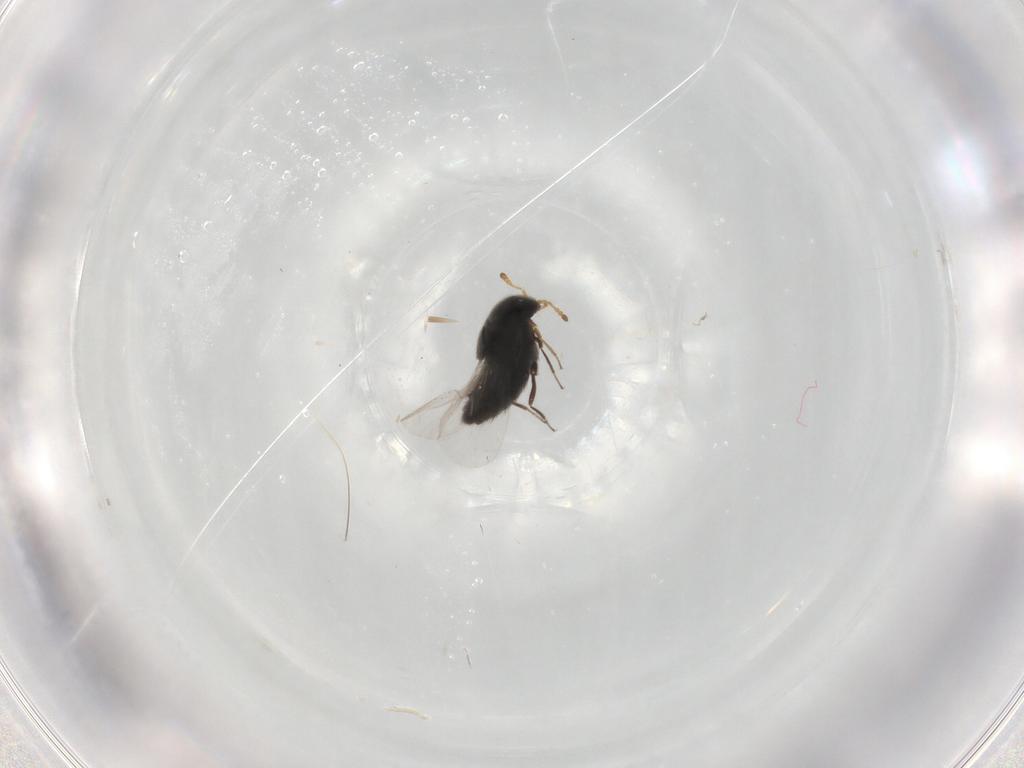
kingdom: Animalia
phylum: Arthropoda
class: Insecta
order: Coleoptera
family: Staphylinidae
